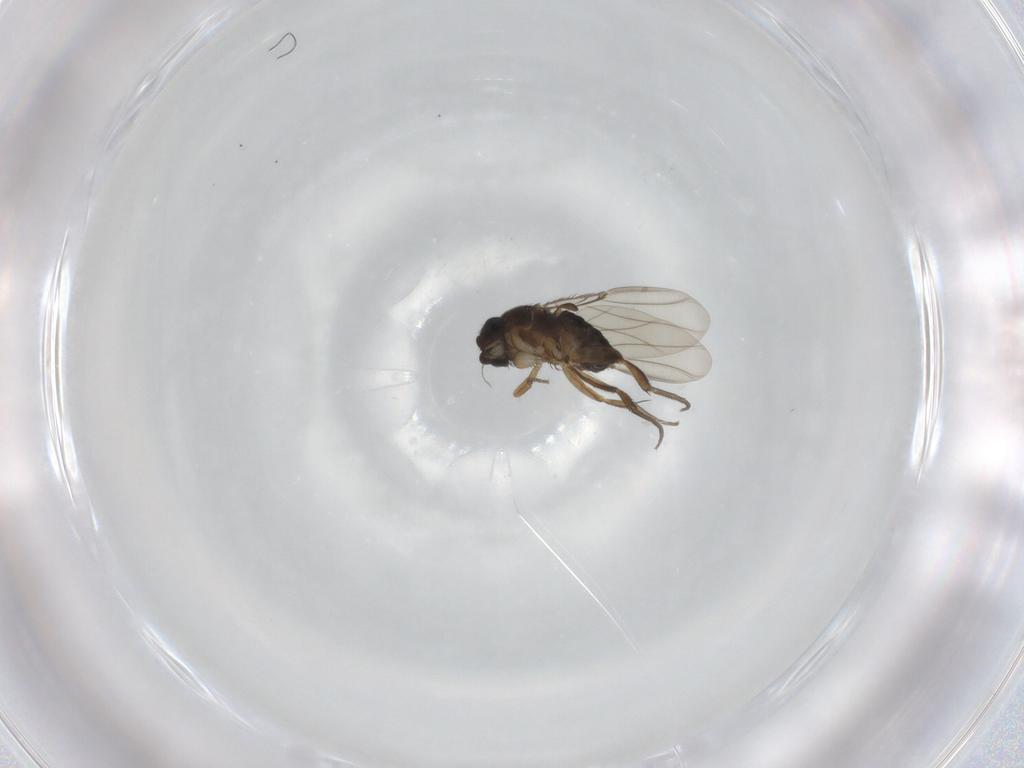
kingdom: Animalia
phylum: Arthropoda
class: Insecta
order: Diptera
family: Phoridae
